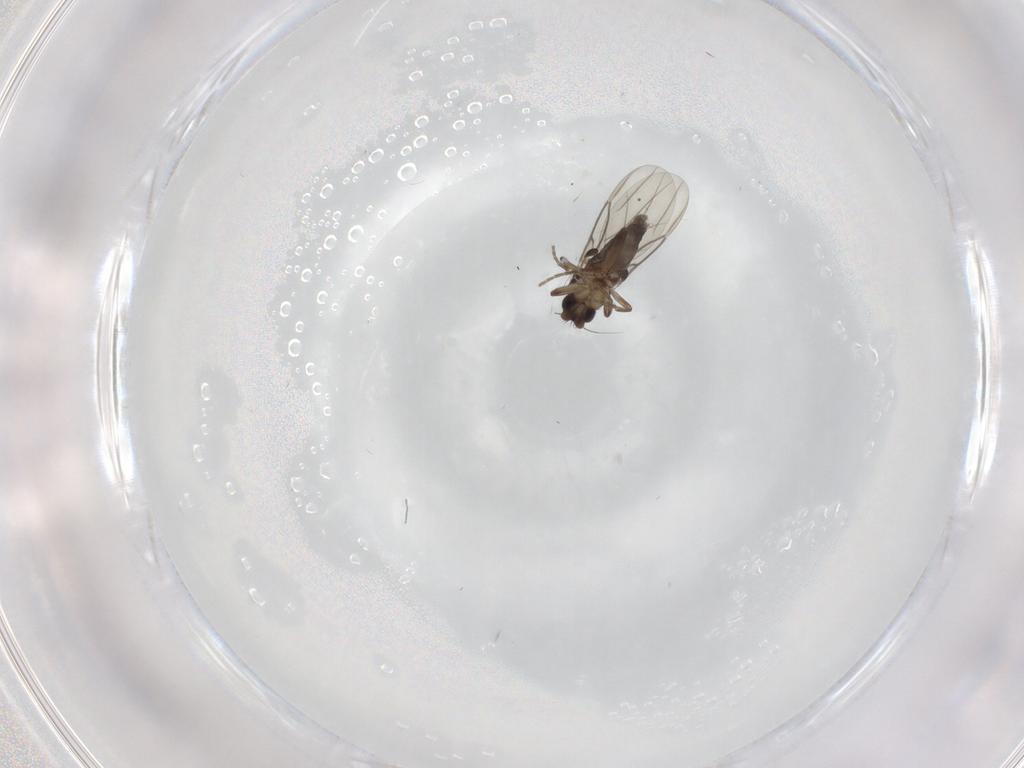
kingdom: Animalia
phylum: Arthropoda
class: Insecta
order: Diptera
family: Phoridae
